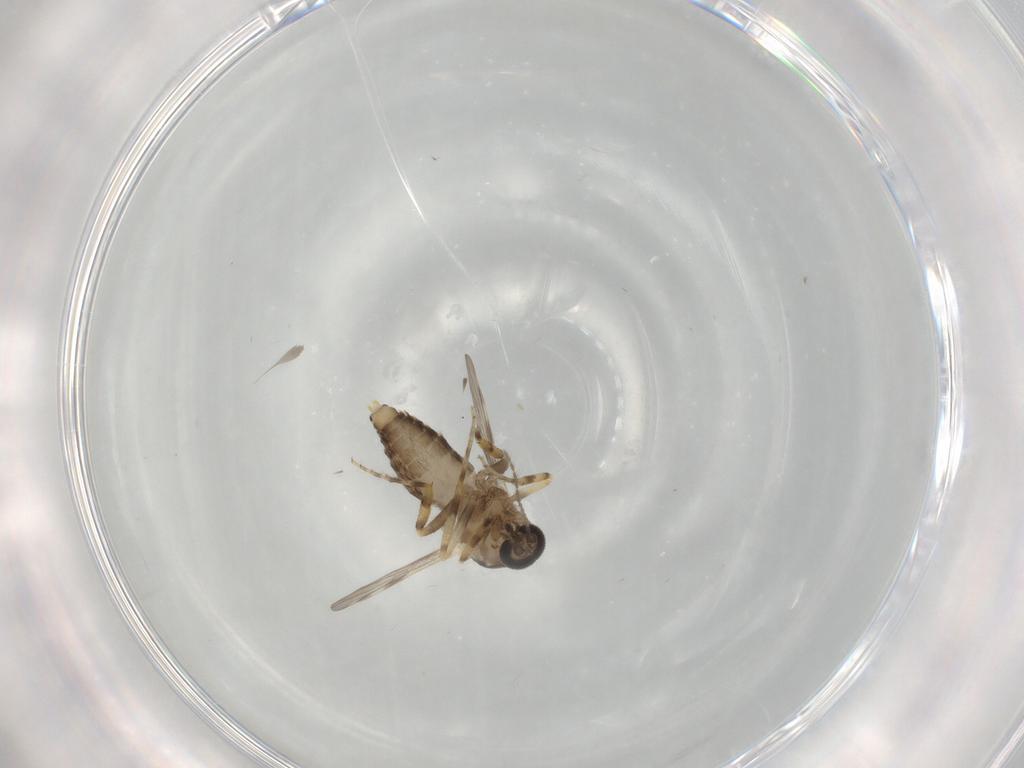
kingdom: Animalia
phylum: Arthropoda
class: Insecta
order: Diptera
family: Ceratopogonidae
